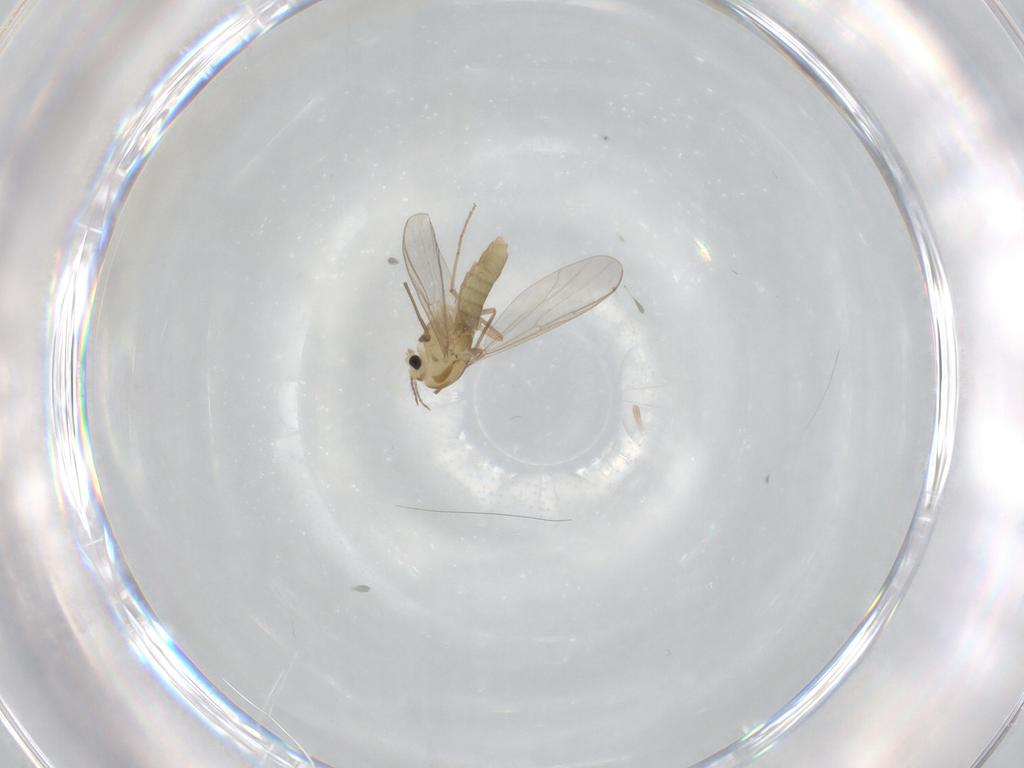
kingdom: Animalia
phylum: Arthropoda
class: Insecta
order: Diptera
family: Chironomidae
